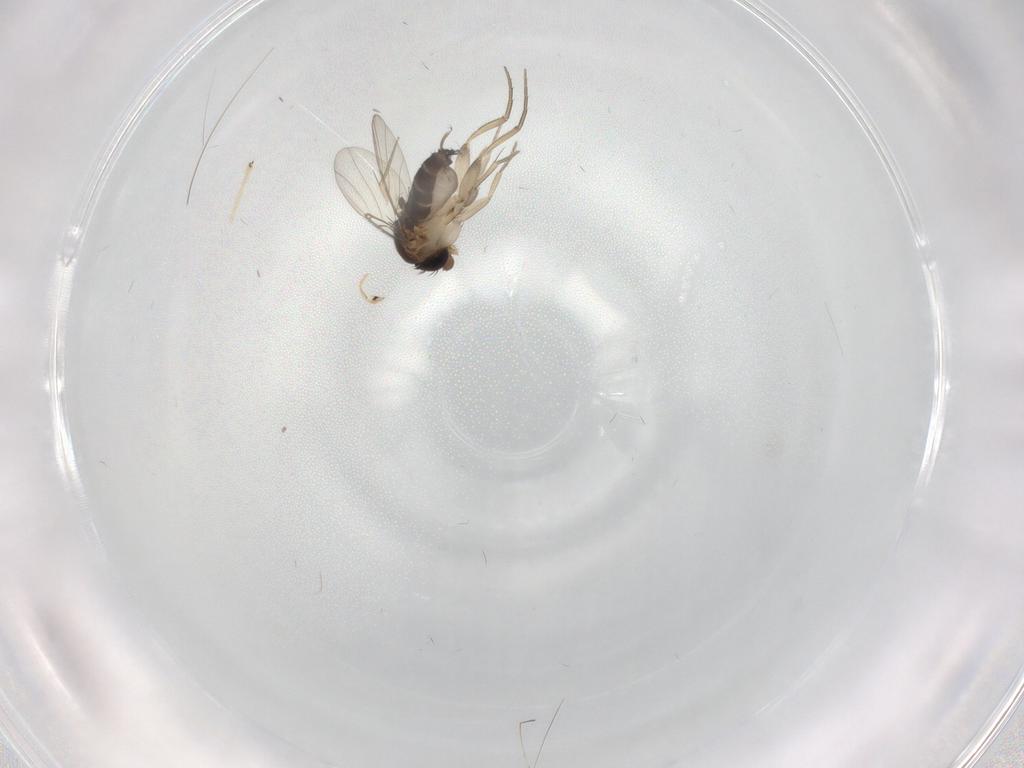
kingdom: Animalia
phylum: Arthropoda
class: Insecta
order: Diptera
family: Phoridae
